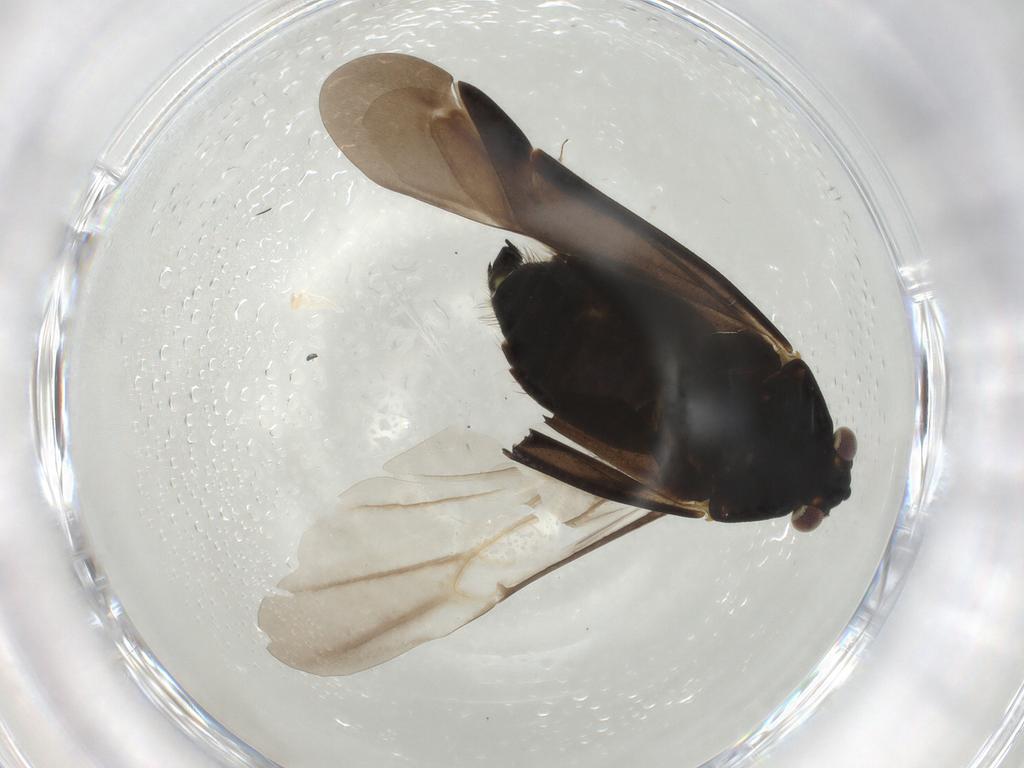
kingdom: Animalia
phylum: Arthropoda
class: Insecta
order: Hemiptera
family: Miridae
